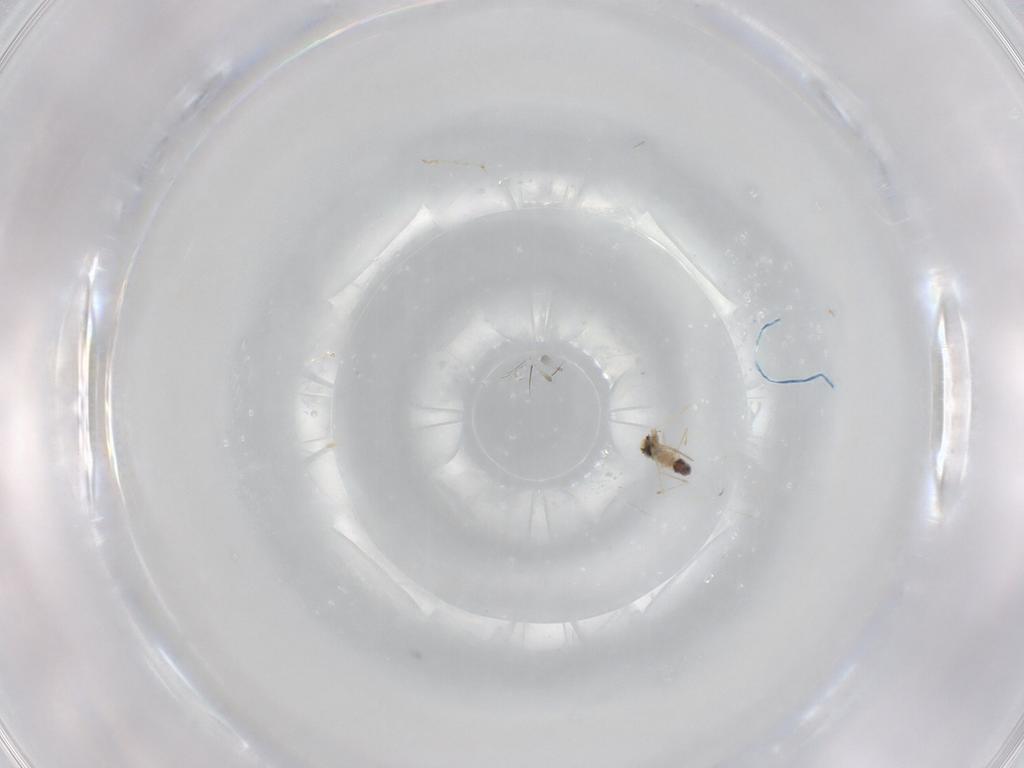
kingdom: Animalia
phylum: Arthropoda
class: Insecta
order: Diptera
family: Cecidomyiidae
